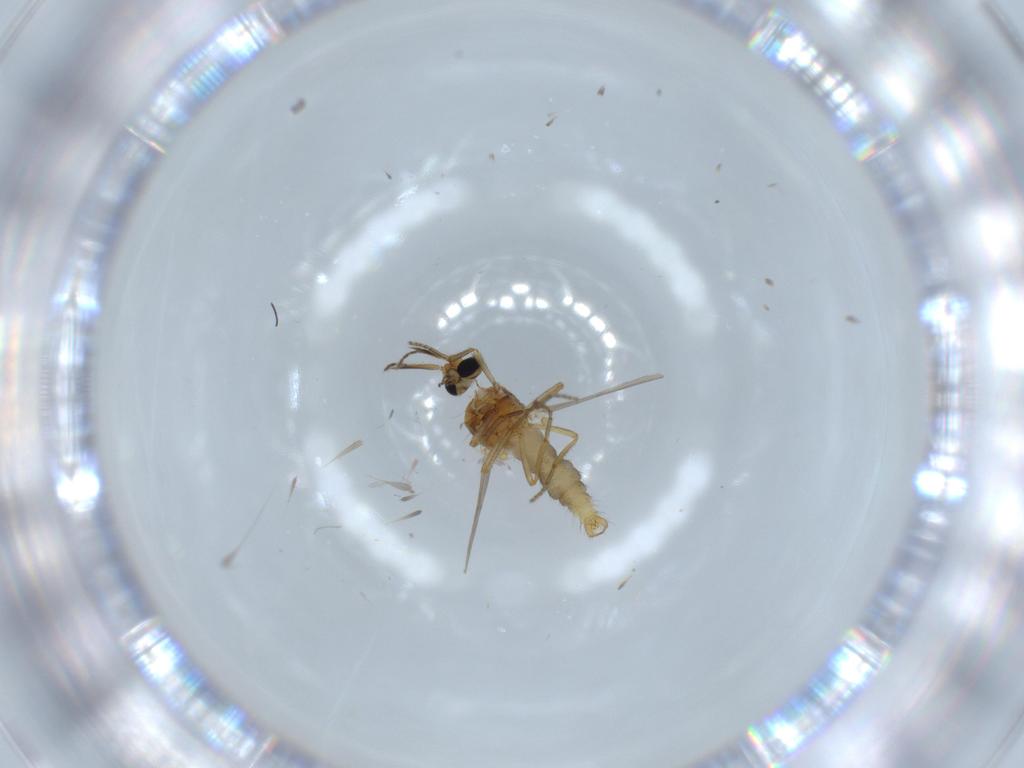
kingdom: Animalia
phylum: Arthropoda
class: Insecta
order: Diptera
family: Ceratopogonidae
